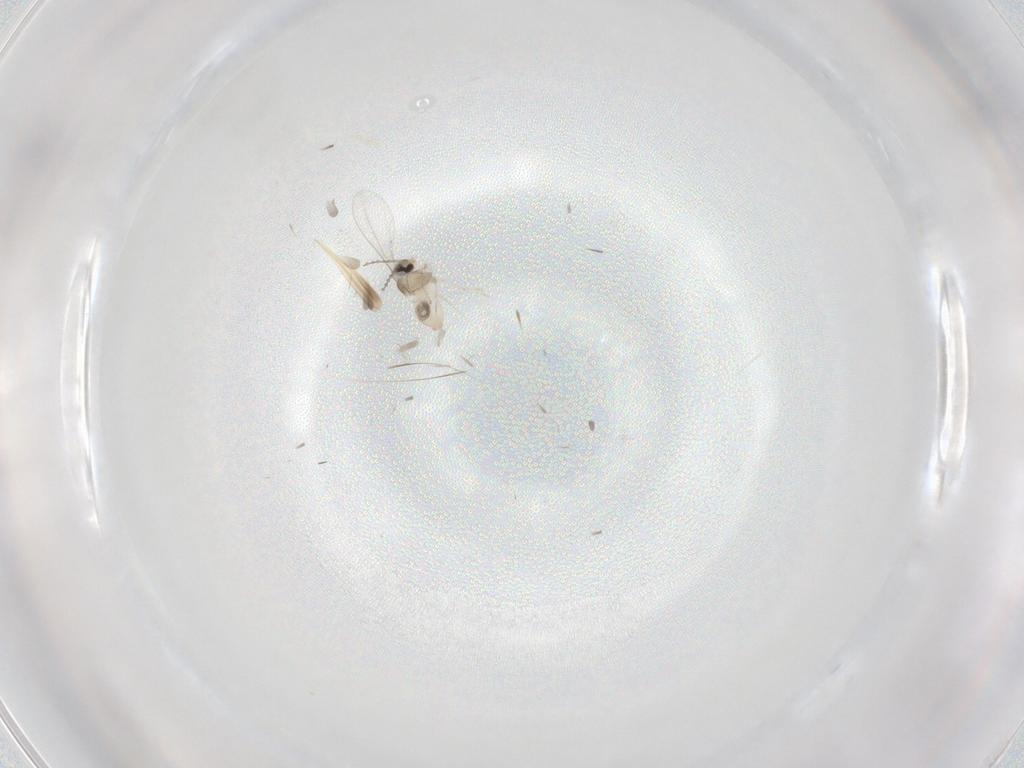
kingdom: Animalia
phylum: Arthropoda
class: Insecta
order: Diptera
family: Cecidomyiidae
